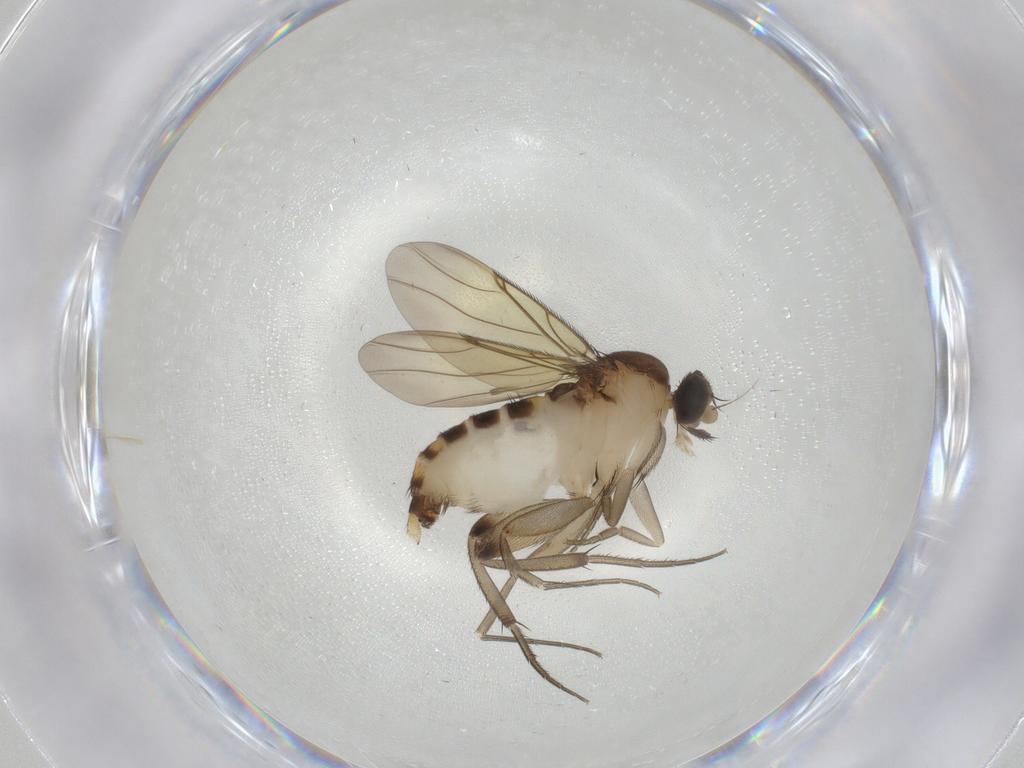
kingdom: Animalia
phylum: Arthropoda
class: Insecta
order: Diptera
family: Phoridae
